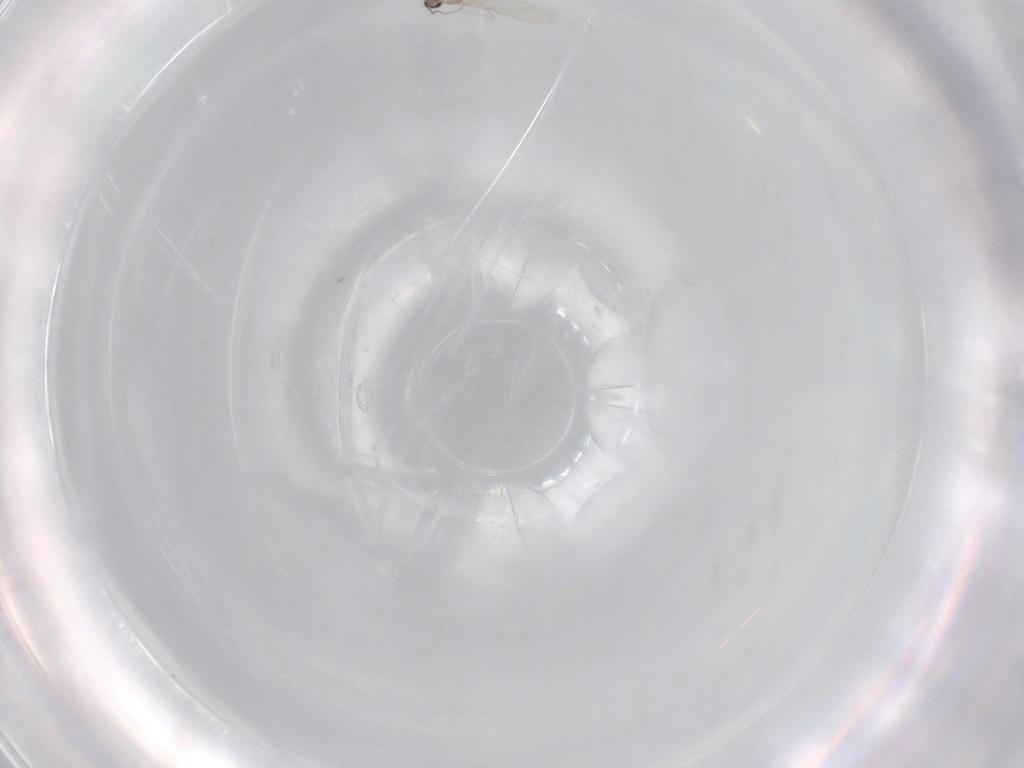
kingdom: Animalia
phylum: Arthropoda
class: Insecta
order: Diptera
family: Cecidomyiidae
